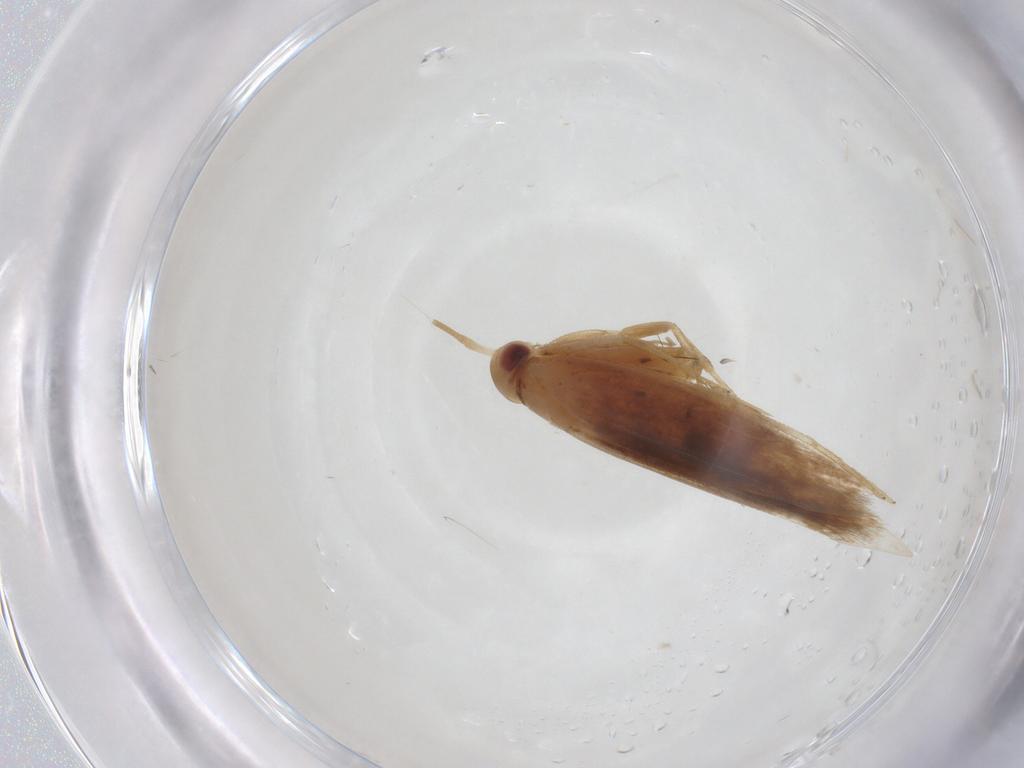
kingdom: Animalia
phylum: Arthropoda
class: Insecta
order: Lepidoptera
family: Cosmopterigidae
